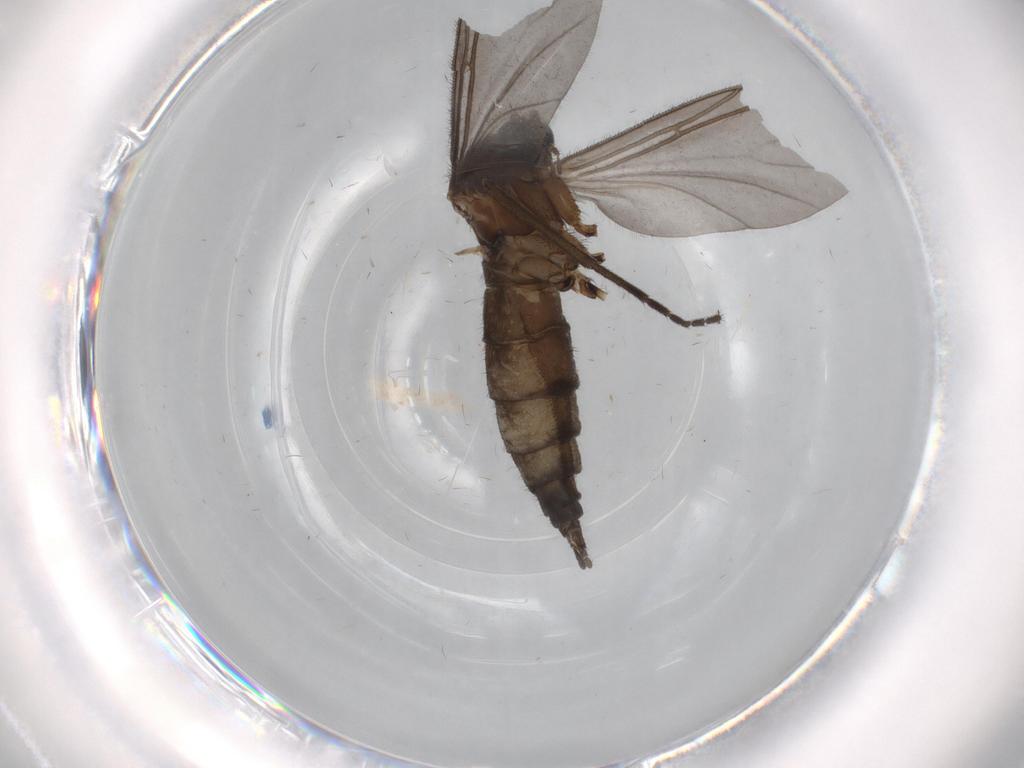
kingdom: Animalia
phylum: Arthropoda
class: Insecta
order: Diptera
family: Sciaridae
